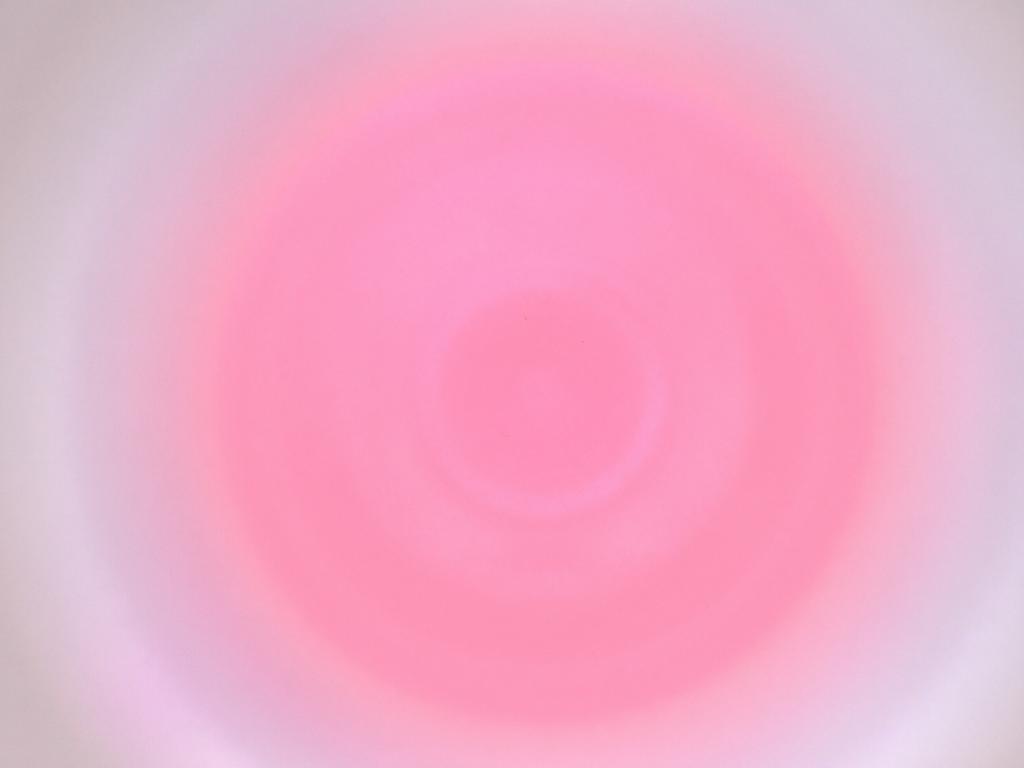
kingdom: Animalia
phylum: Arthropoda
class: Insecta
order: Diptera
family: Cecidomyiidae
